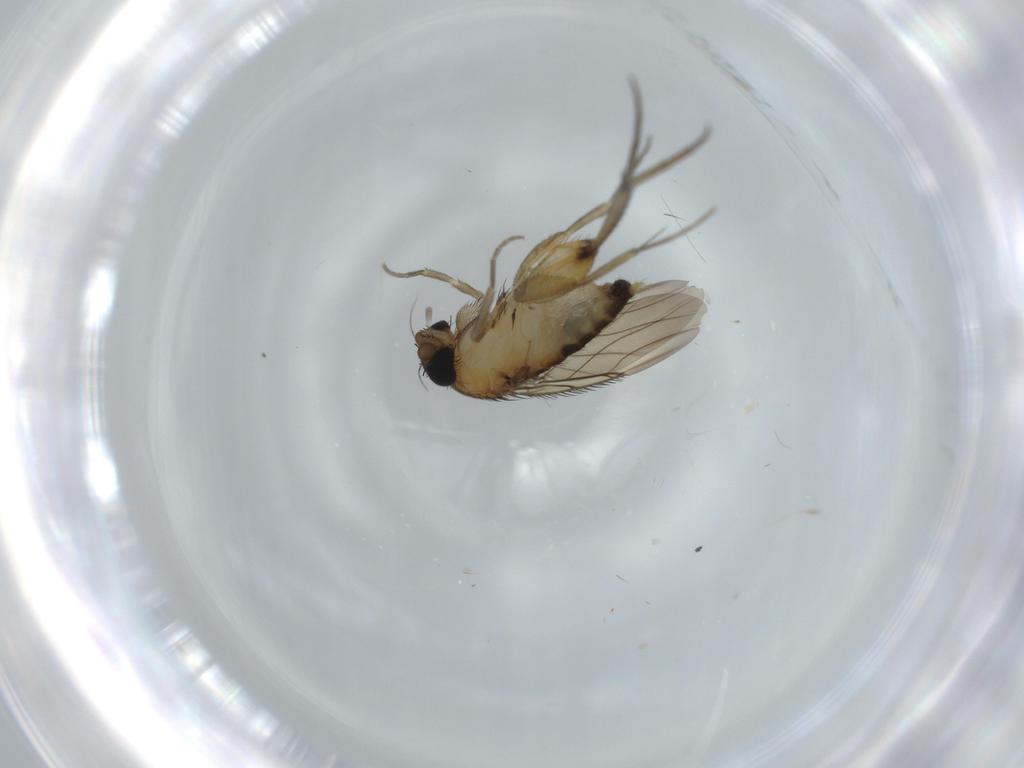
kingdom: Animalia
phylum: Arthropoda
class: Insecta
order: Diptera
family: Phoridae
